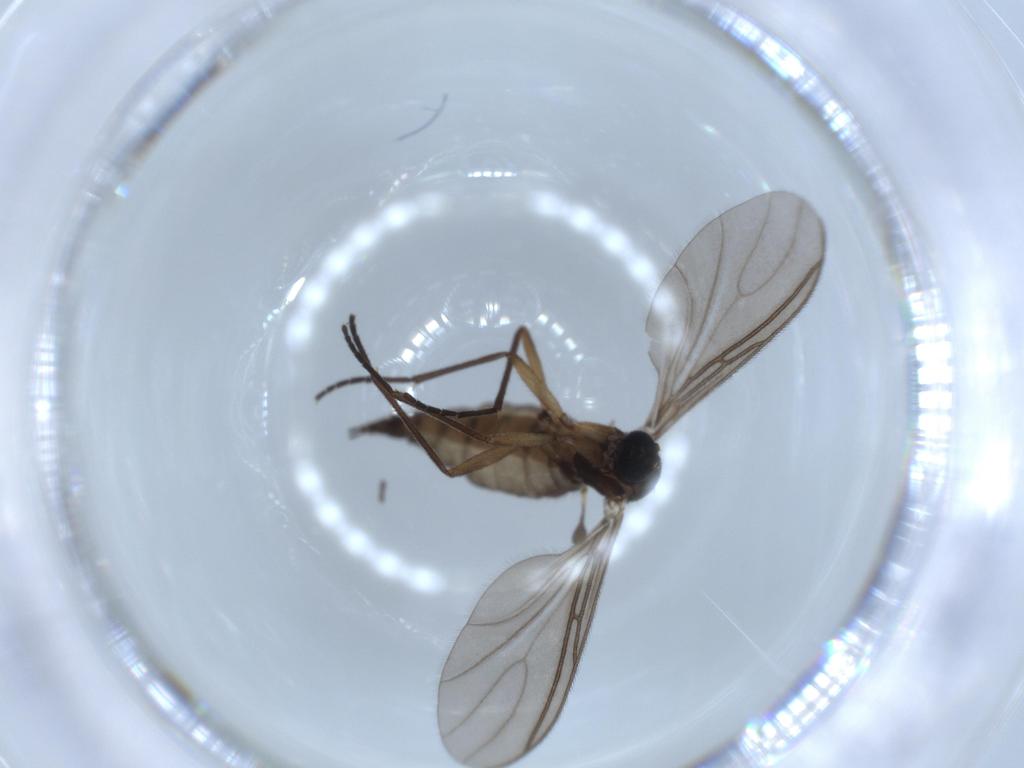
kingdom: Animalia
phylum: Arthropoda
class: Insecta
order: Diptera
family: Sciaridae
